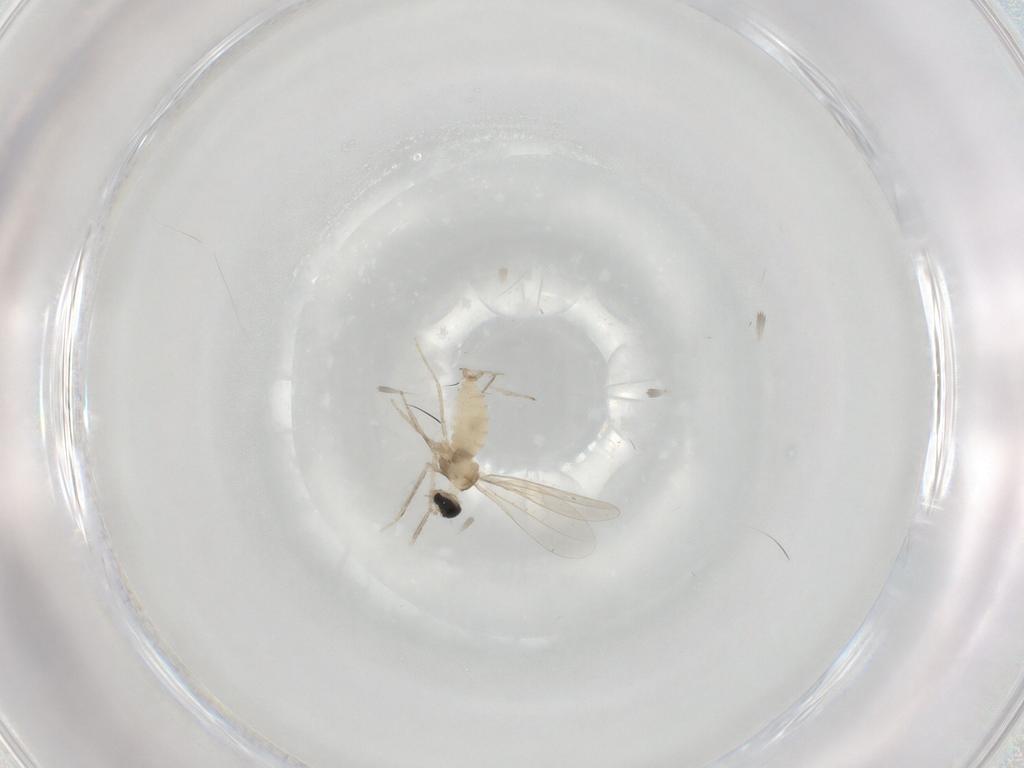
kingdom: Animalia
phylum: Arthropoda
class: Insecta
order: Diptera
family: Cecidomyiidae
